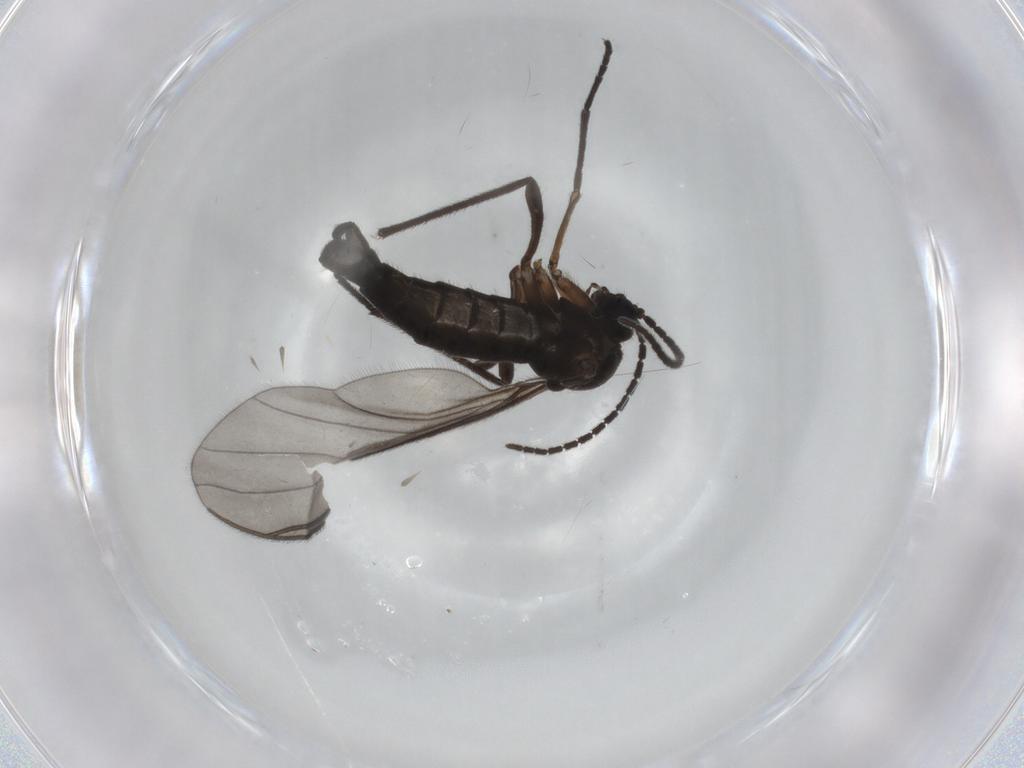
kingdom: Animalia
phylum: Arthropoda
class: Insecta
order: Diptera
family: Sciaridae
